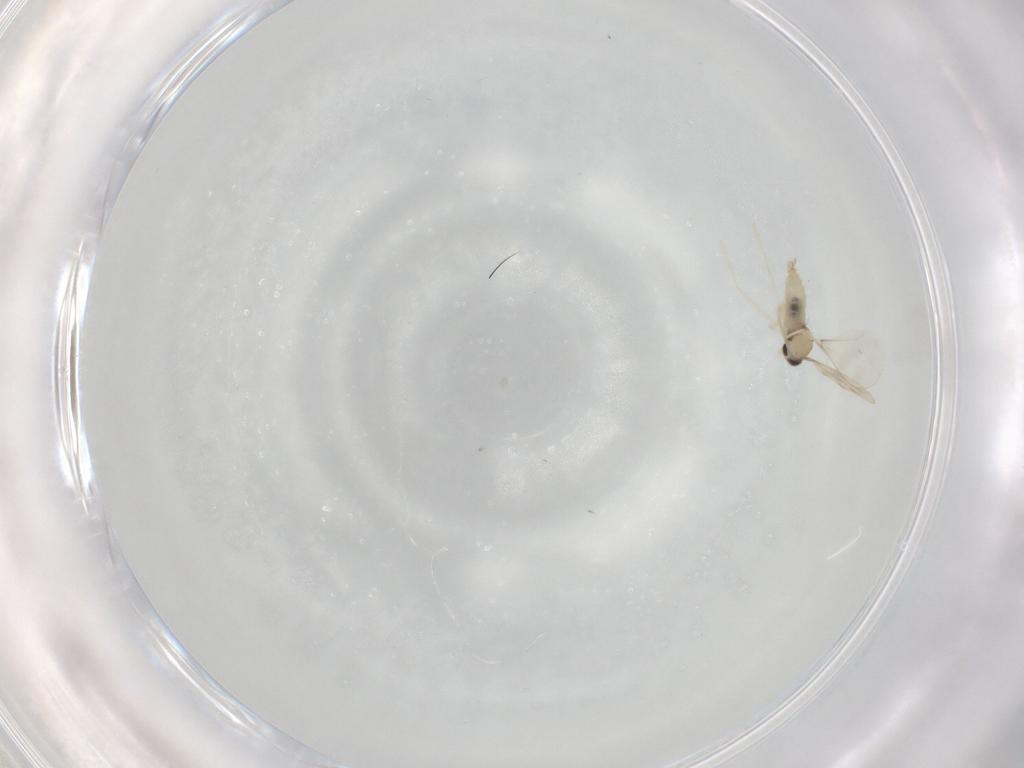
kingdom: Animalia
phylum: Arthropoda
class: Insecta
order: Diptera
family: Cecidomyiidae
